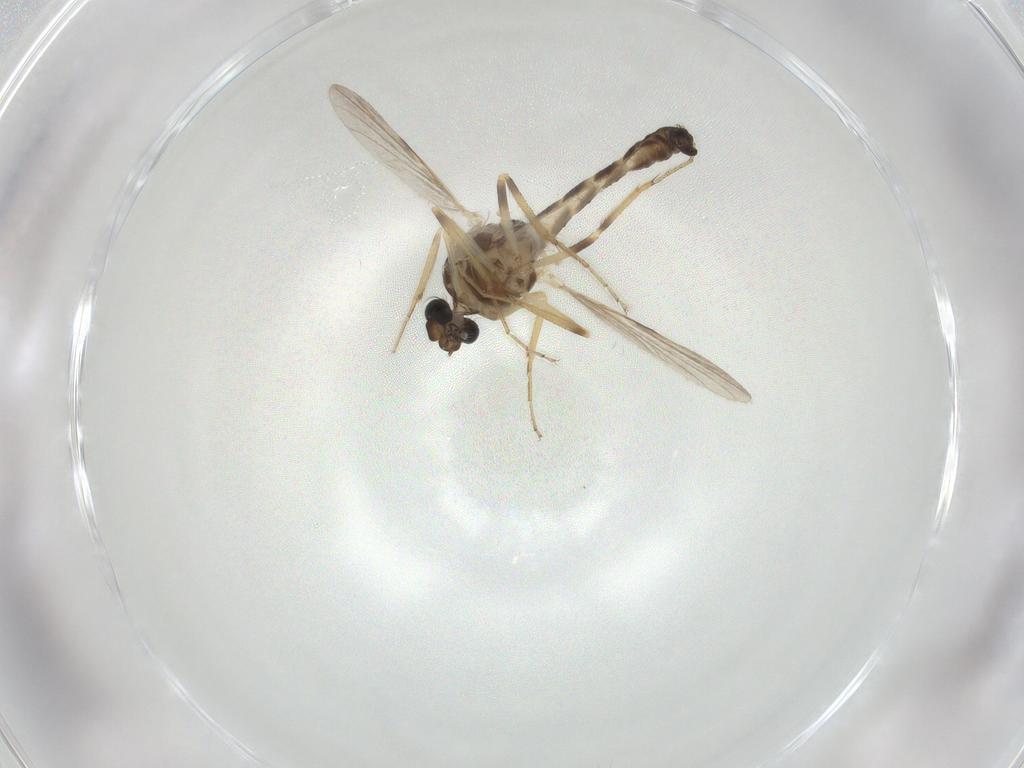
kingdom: Animalia
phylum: Arthropoda
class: Insecta
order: Diptera
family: Ceratopogonidae
